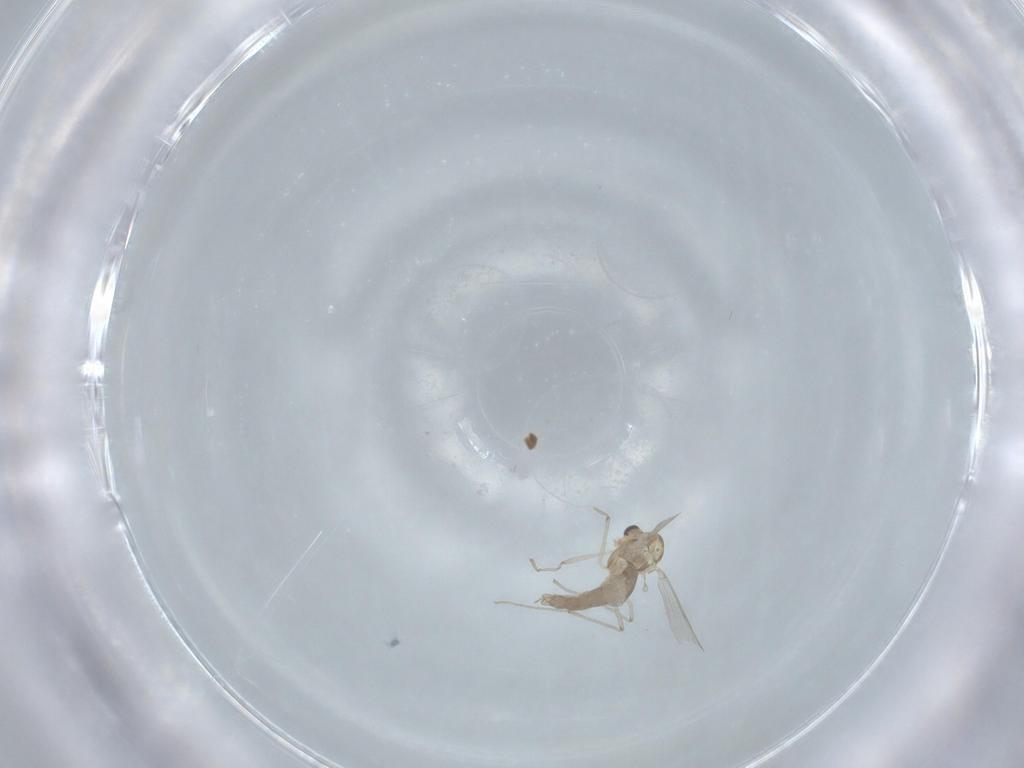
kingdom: Animalia
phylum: Arthropoda
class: Insecta
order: Diptera
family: Chironomidae
